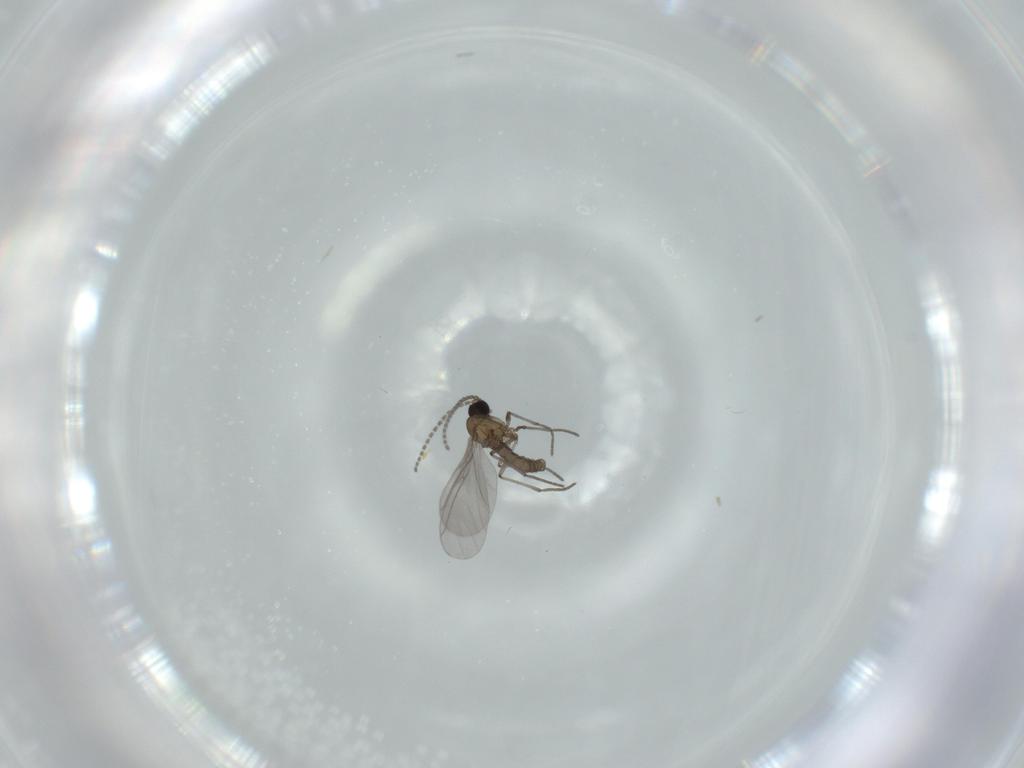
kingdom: Animalia
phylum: Arthropoda
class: Insecta
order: Diptera
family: Sciaridae
